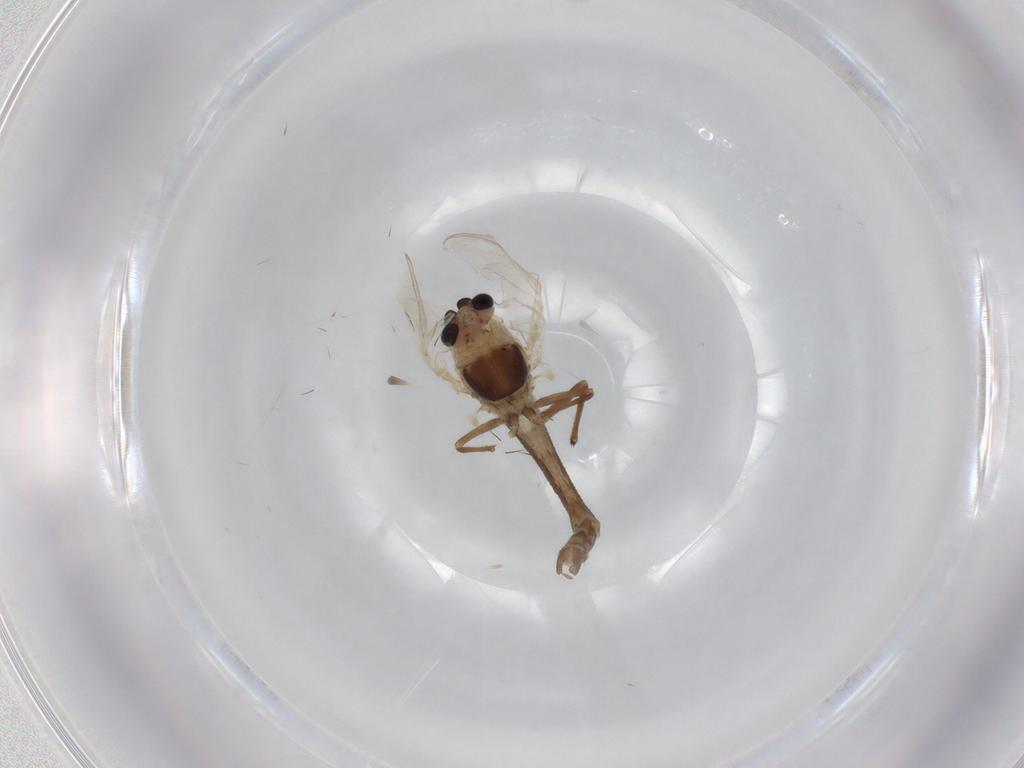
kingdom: Animalia
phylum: Arthropoda
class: Insecta
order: Diptera
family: Chironomidae
